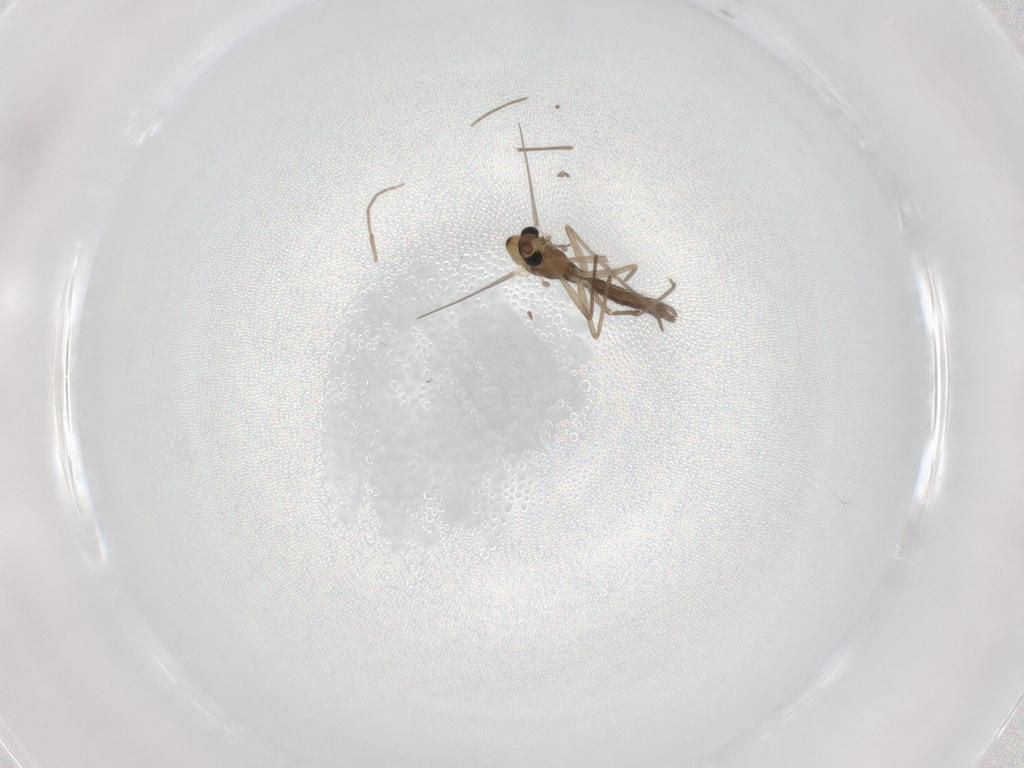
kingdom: Animalia
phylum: Arthropoda
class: Insecta
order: Diptera
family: Chironomidae
